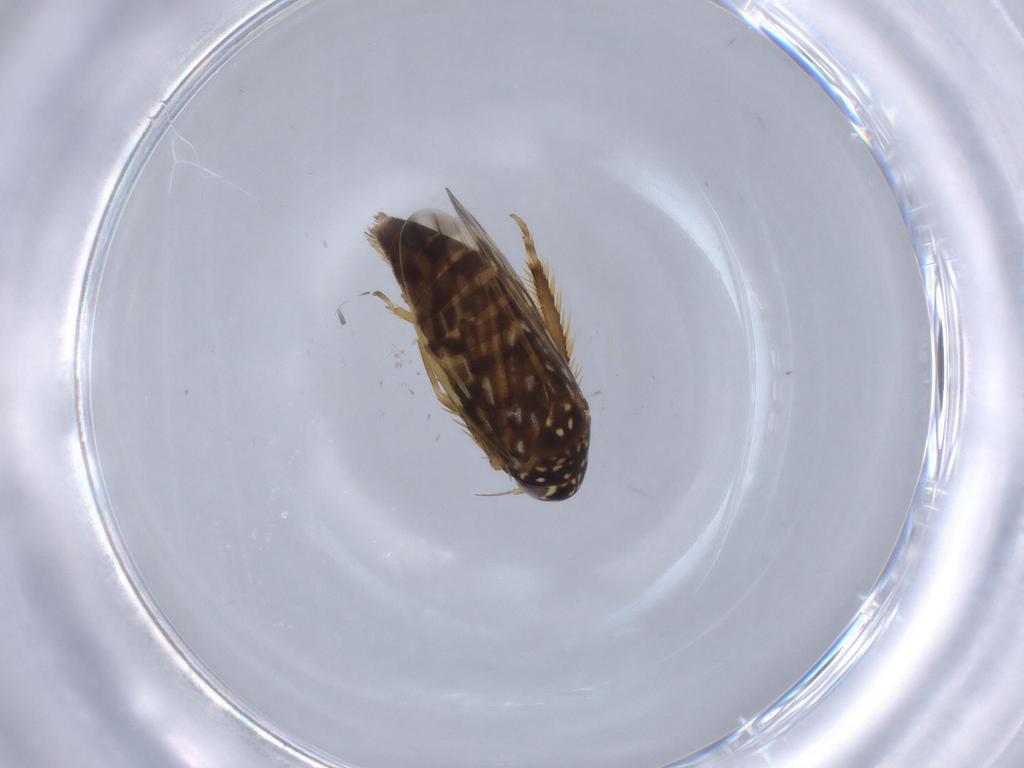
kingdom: Animalia
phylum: Arthropoda
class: Insecta
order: Hemiptera
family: Cicadellidae
